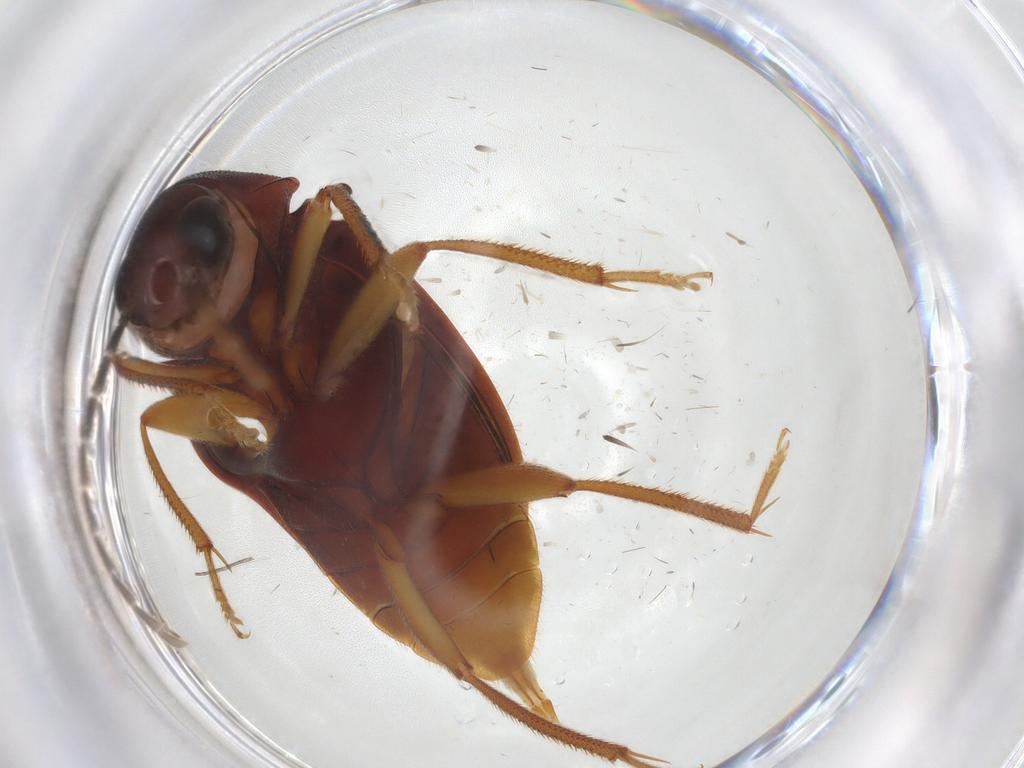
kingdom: Animalia
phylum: Arthropoda
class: Insecta
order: Coleoptera
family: Ptilodactylidae
